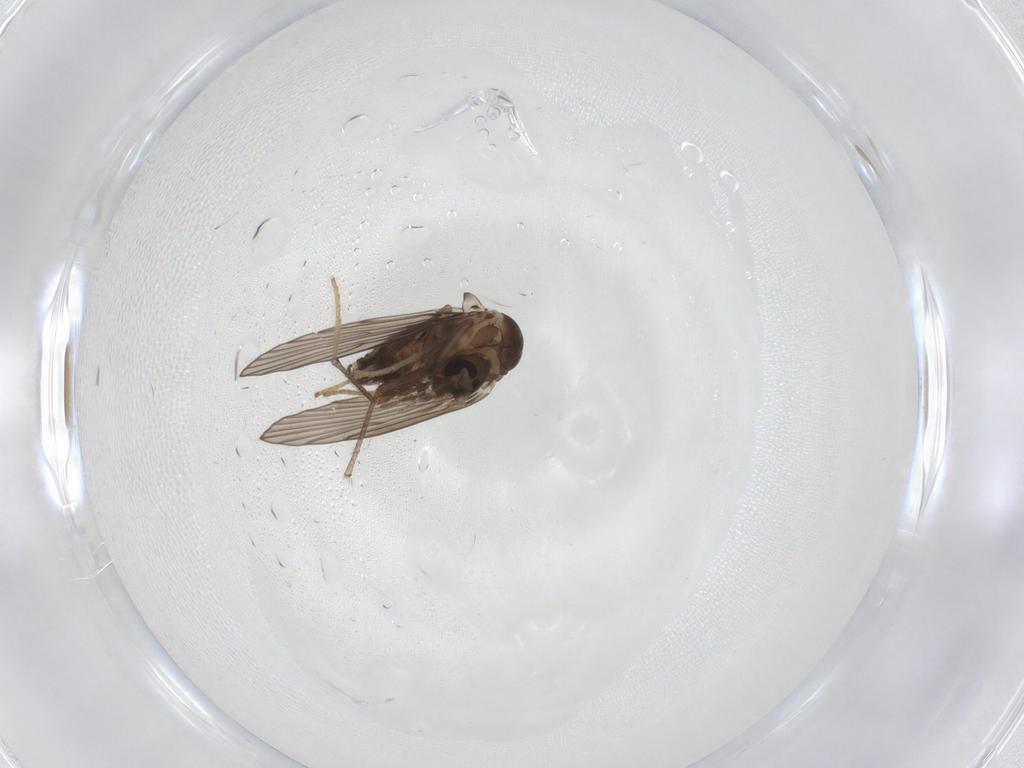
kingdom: Animalia
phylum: Arthropoda
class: Insecta
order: Diptera
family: Psychodidae
